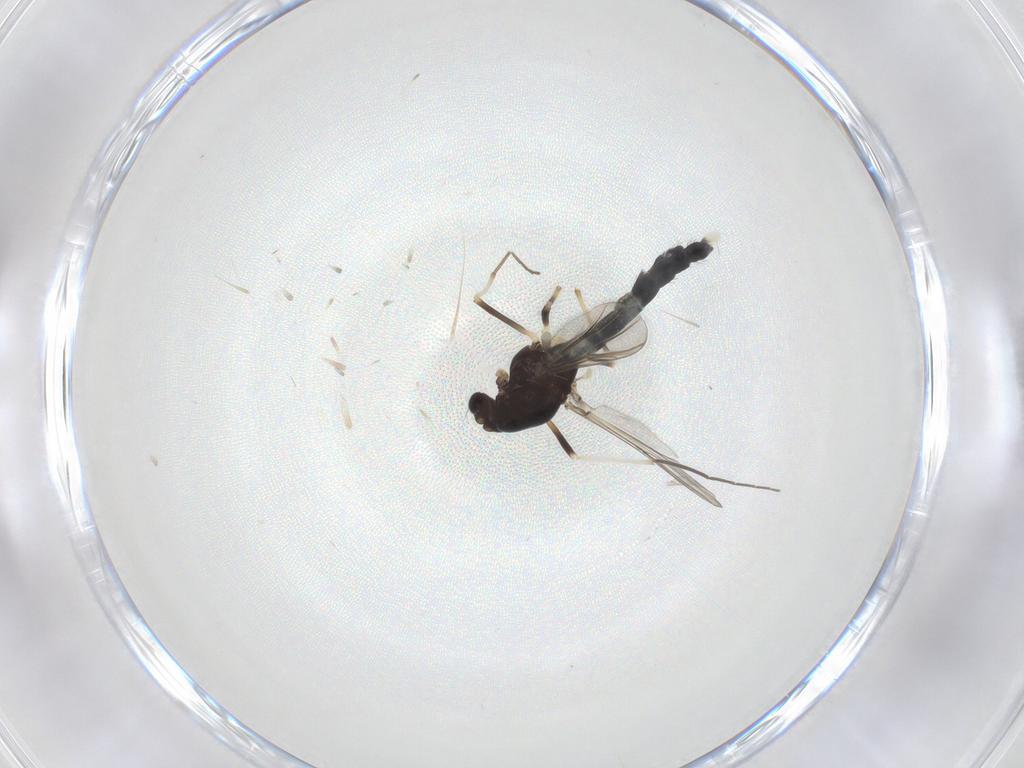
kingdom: Animalia
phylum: Arthropoda
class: Insecta
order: Diptera
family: Chironomidae
